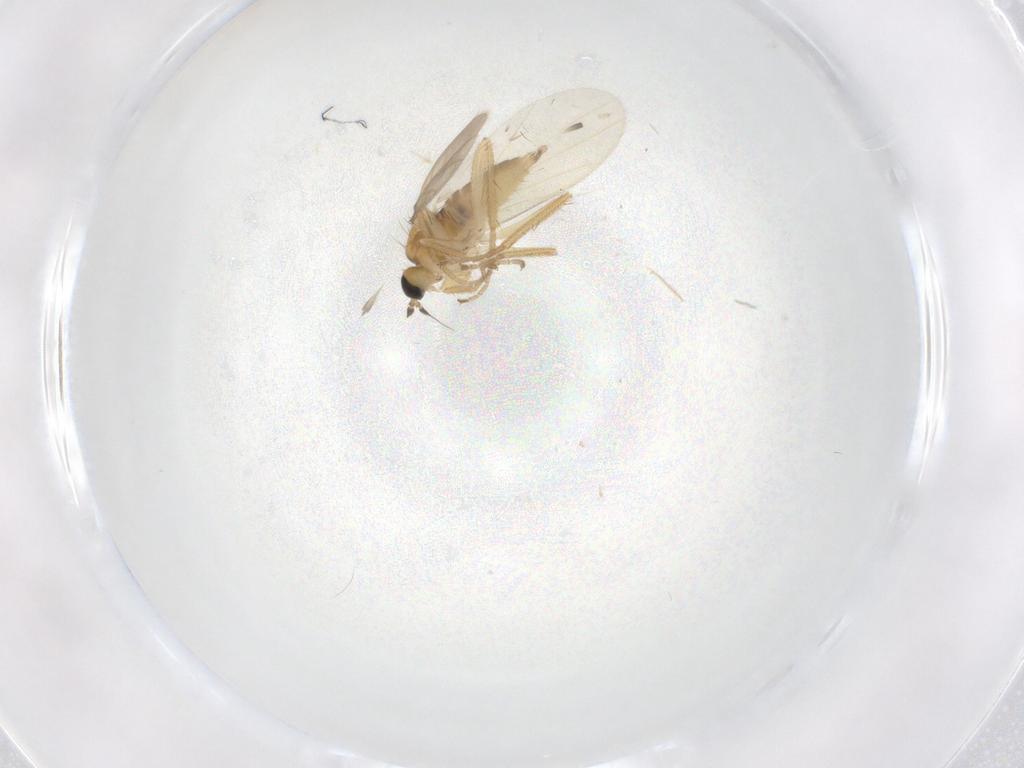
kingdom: Animalia
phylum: Arthropoda
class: Insecta
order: Diptera
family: Hybotidae
